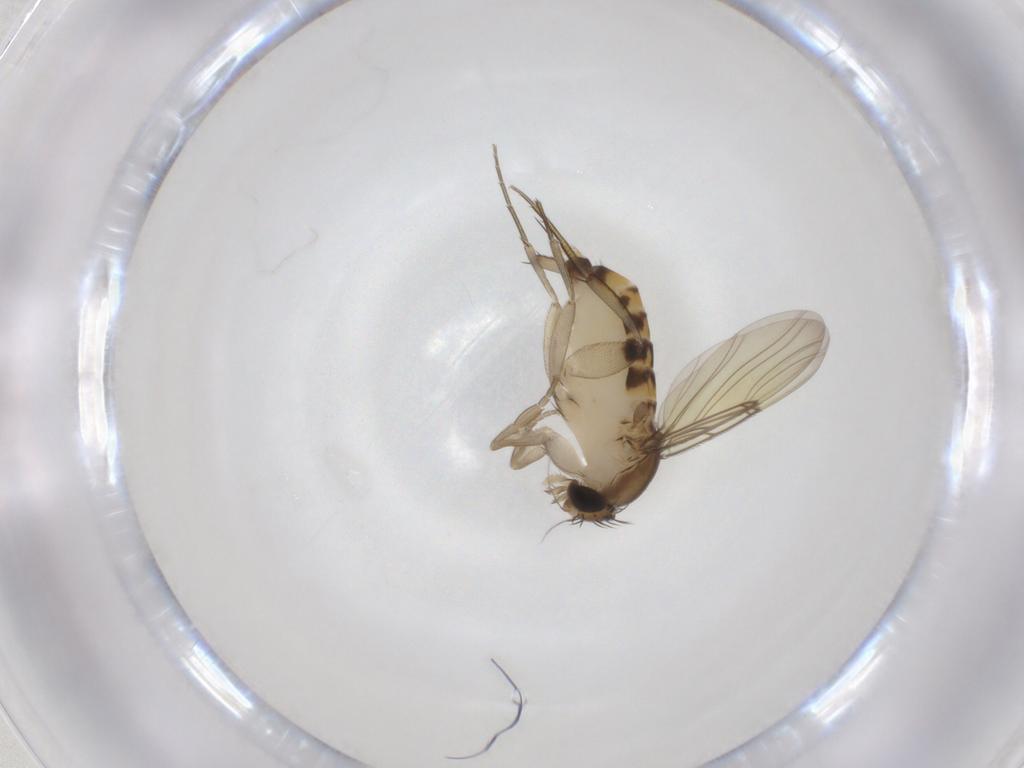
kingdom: Animalia
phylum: Arthropoda
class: Insecta
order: Diptera
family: Phoridae
